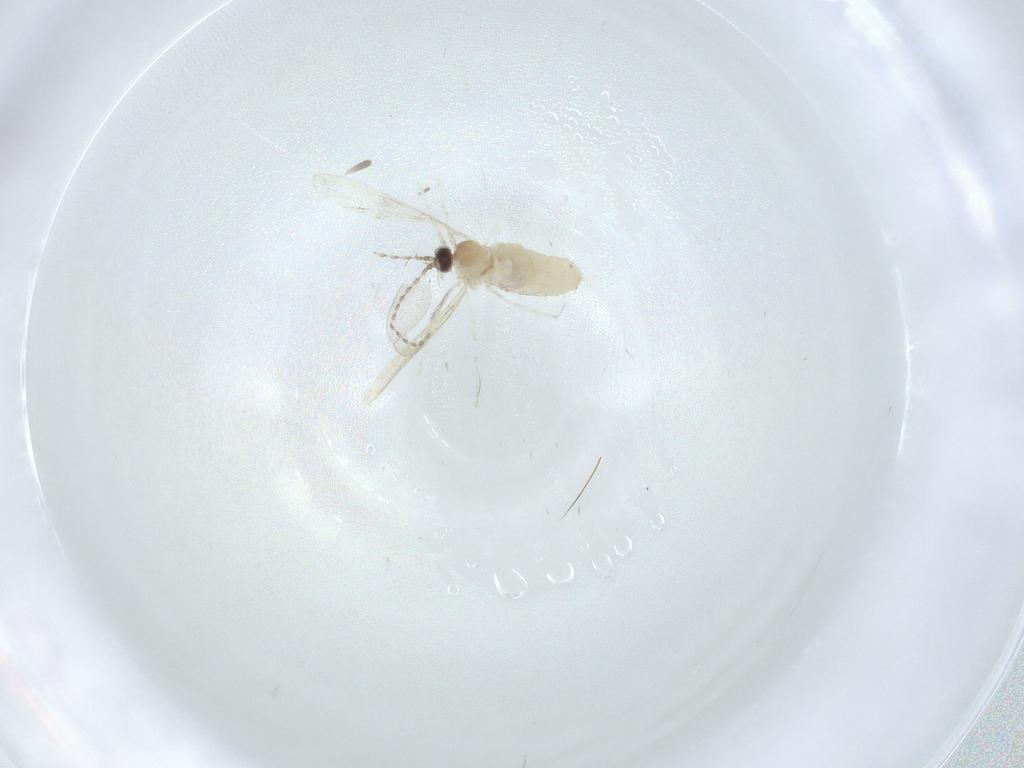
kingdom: Animalia
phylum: Arthropoda
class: Insecta
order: Diptera
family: Cecidomyiidae
